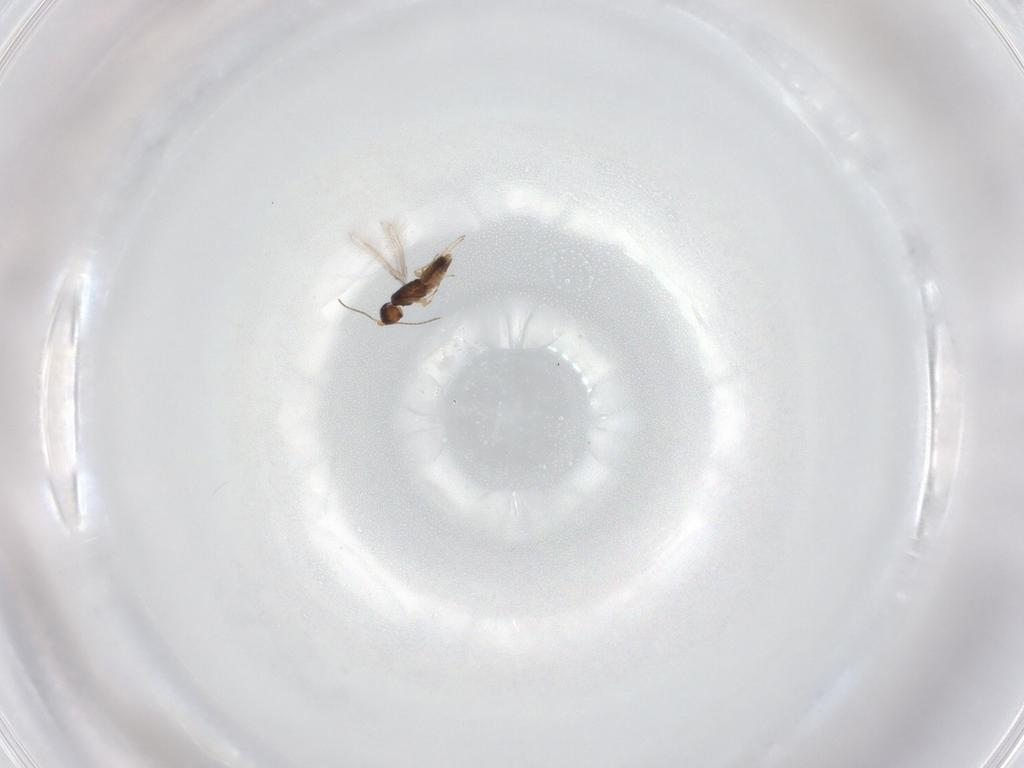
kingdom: Animalia
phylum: Arthropoda
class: Insecta
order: Hymenoptera
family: Mymaridae
